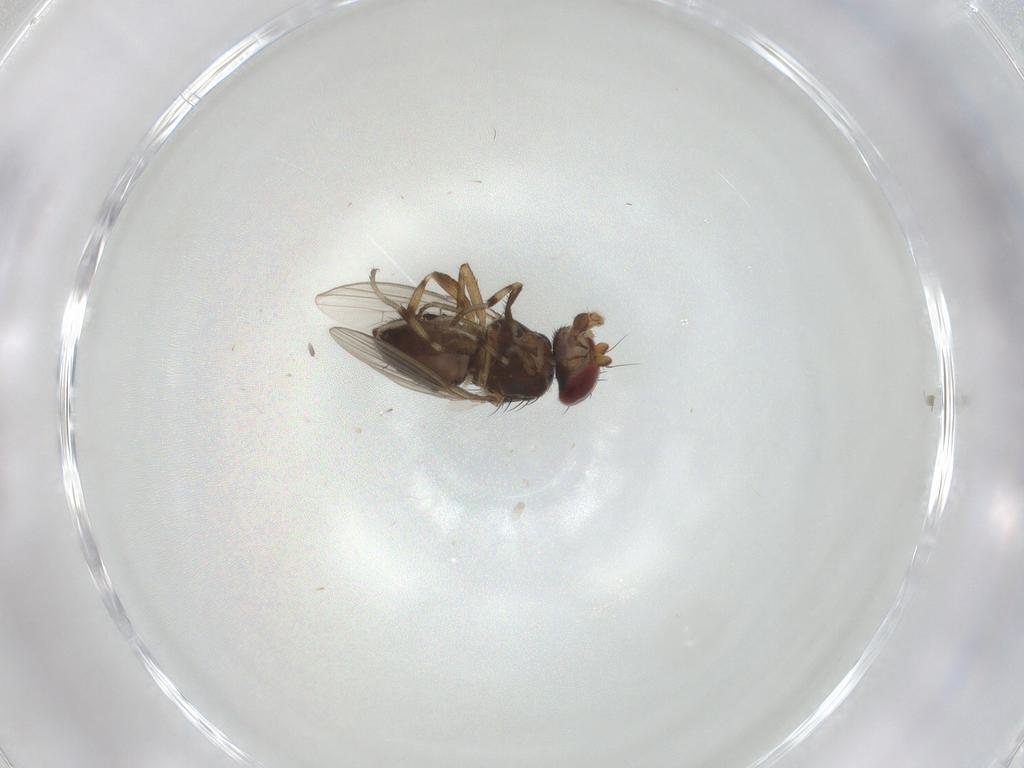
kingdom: Animalia
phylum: Arthropoda
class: Insecta
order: Diptera
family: Heleomyzidae
